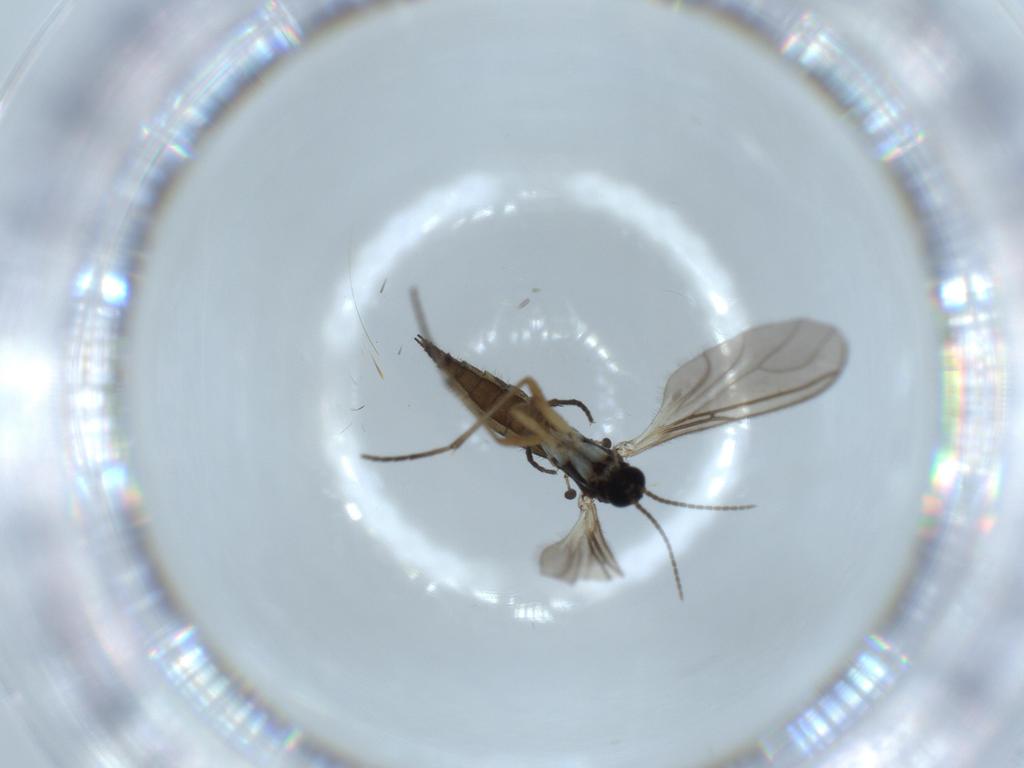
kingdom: Animalia
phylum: Arthropoda
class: Insecta
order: Diptera
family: Sciaridae
